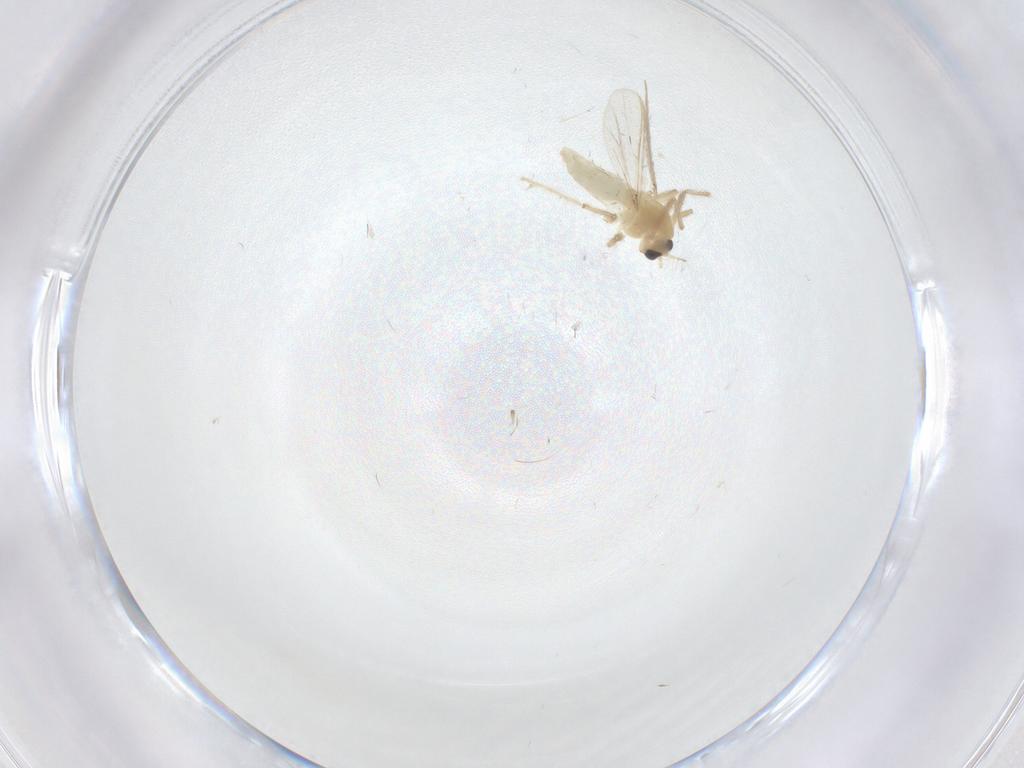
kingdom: Animalia
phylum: Arthropoda
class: Insecta
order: Diptera
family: Chironomidae
